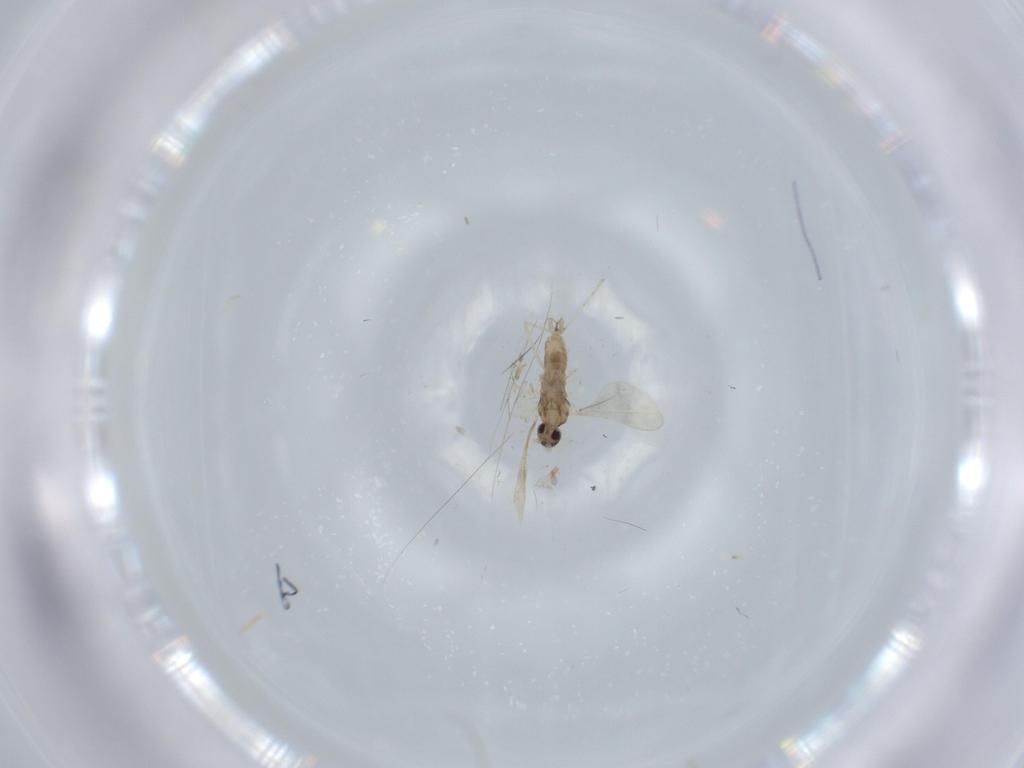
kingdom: Animalia
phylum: Arthropoda
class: Insecta
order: Diptera
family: Cecidomyiidae
